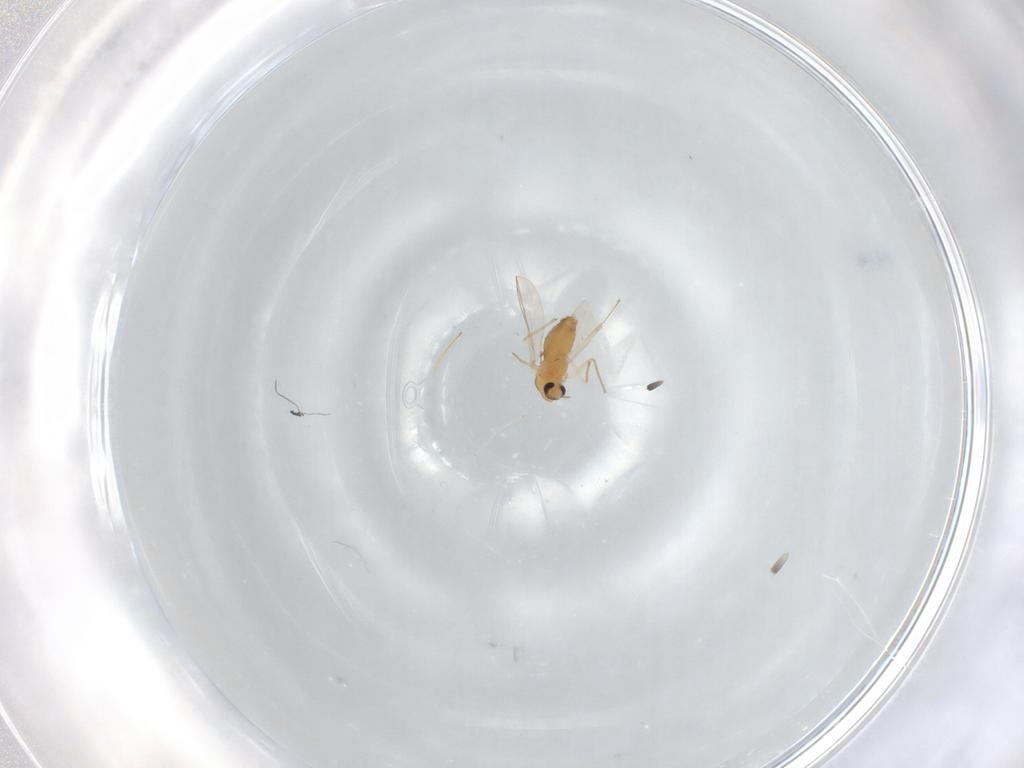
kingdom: Animalia
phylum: Arthropoda
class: Insecta
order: Diptera
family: Chironomidae
